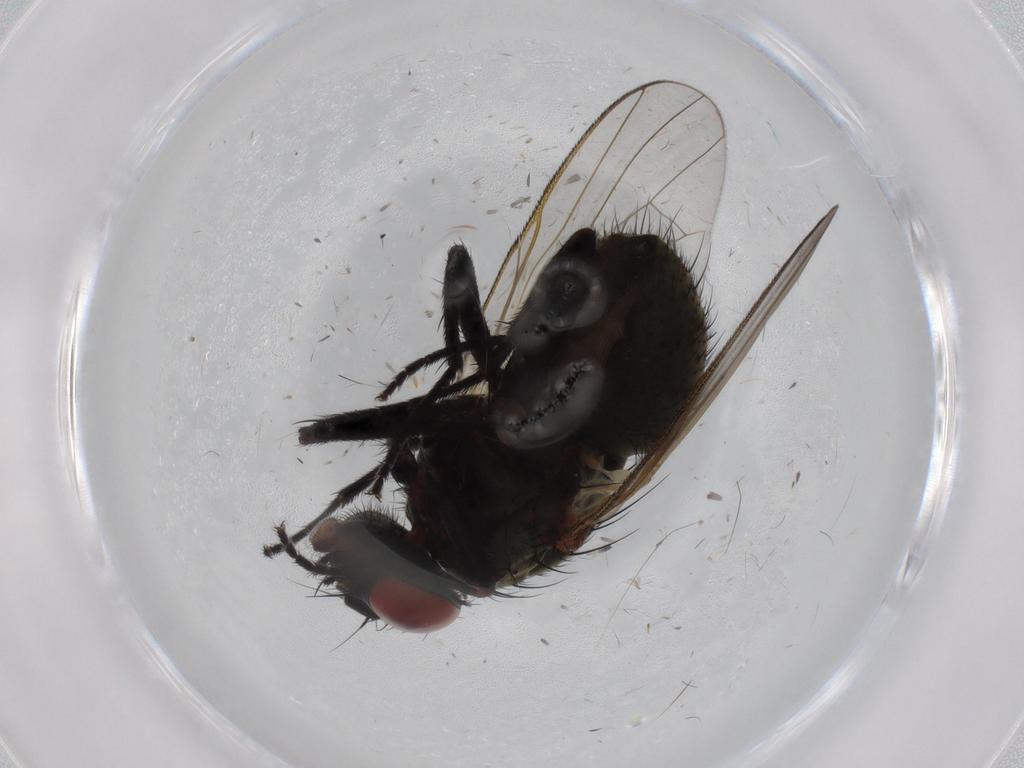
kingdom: Animalia
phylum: Arthropoda
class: Insecta
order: Diptera
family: Muscidae
